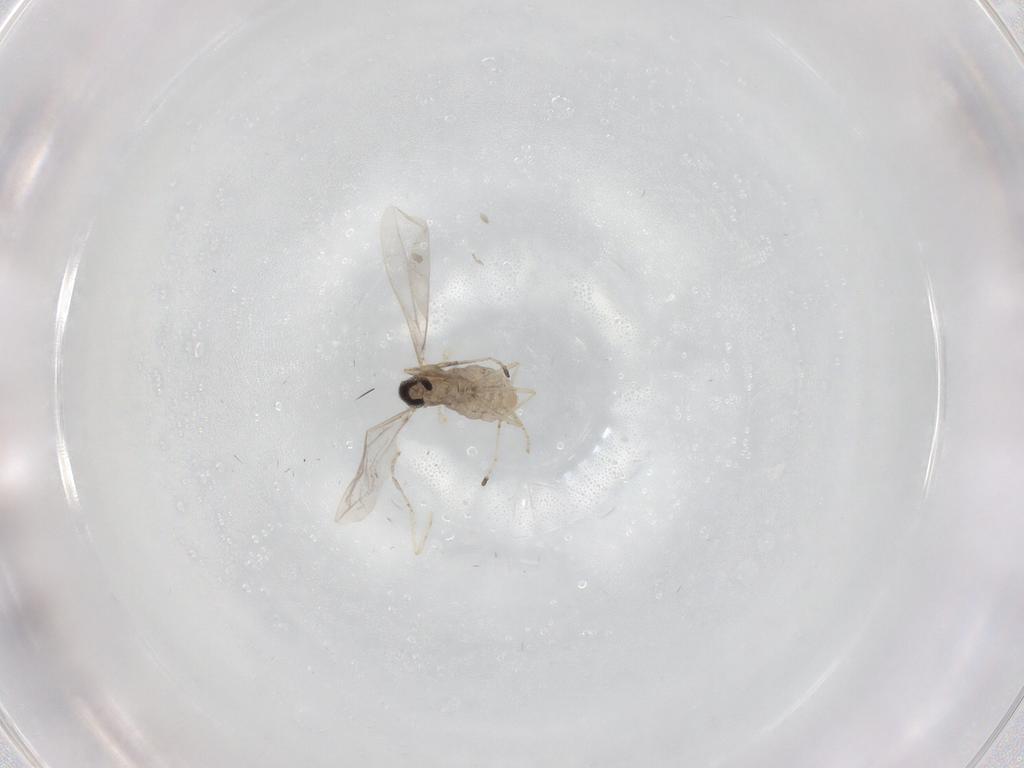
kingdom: Animalia
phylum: Arthropoda
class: Insecta
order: Diptera
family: Cecidomyiidae
